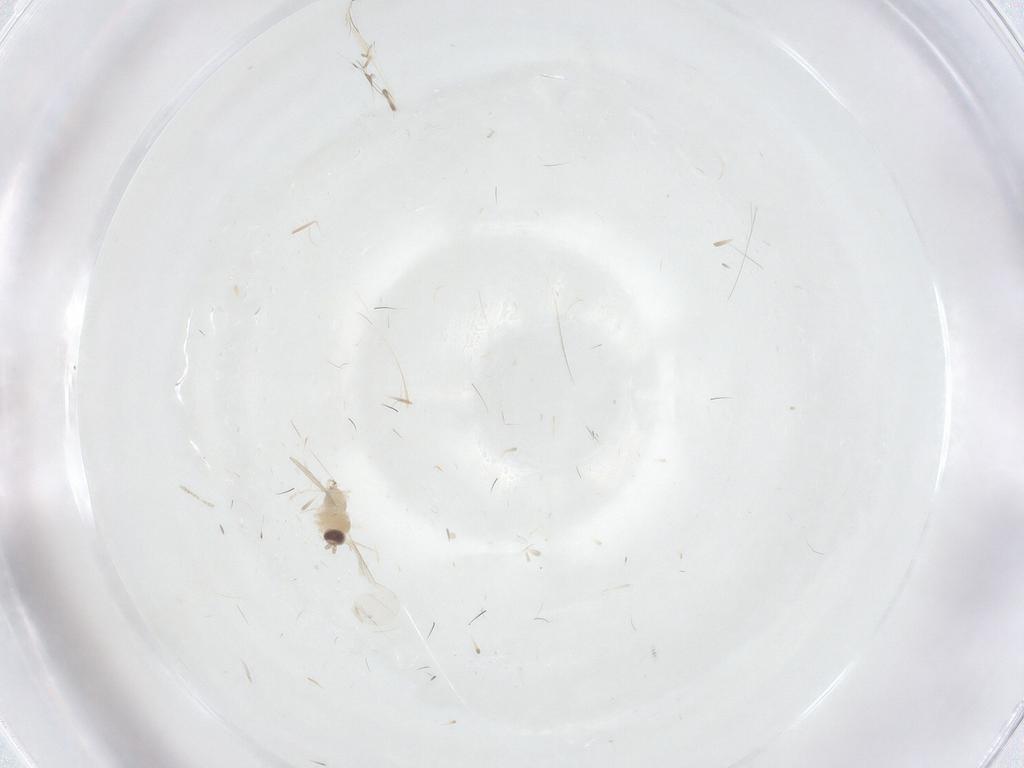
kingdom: Animalia
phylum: Arthropoda
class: Insecta
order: Diptera
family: Cecidomyiidae
